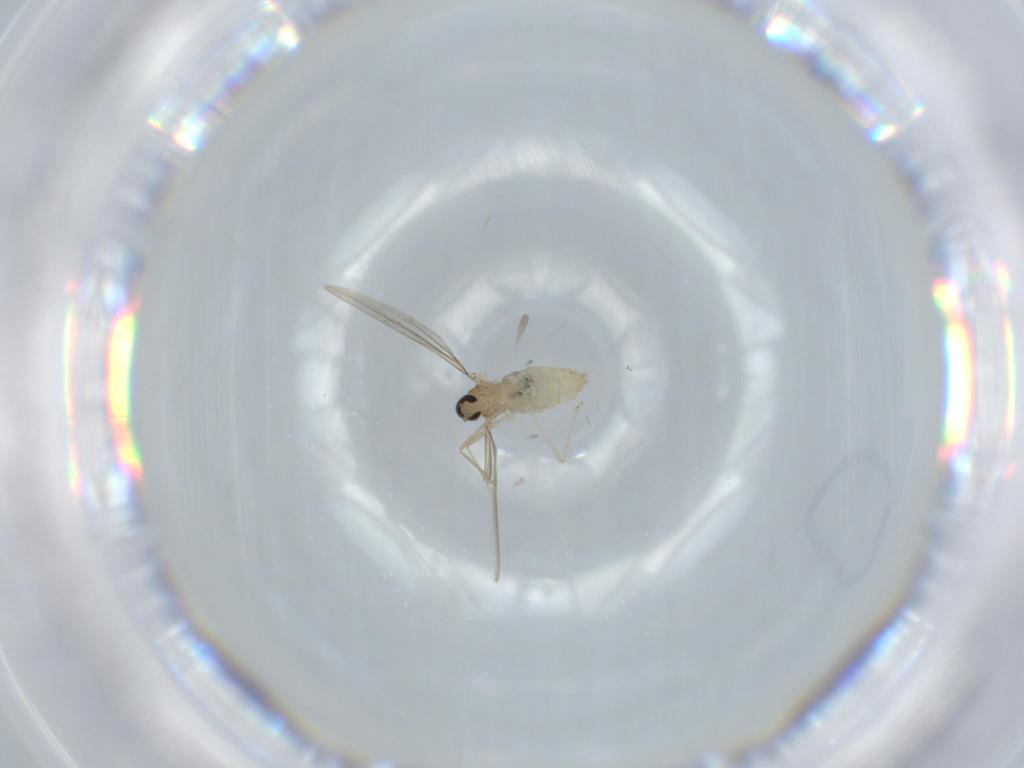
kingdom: Animalia
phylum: Arthropoda
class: Insecta
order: Diptera
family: Cecidomyiidae
